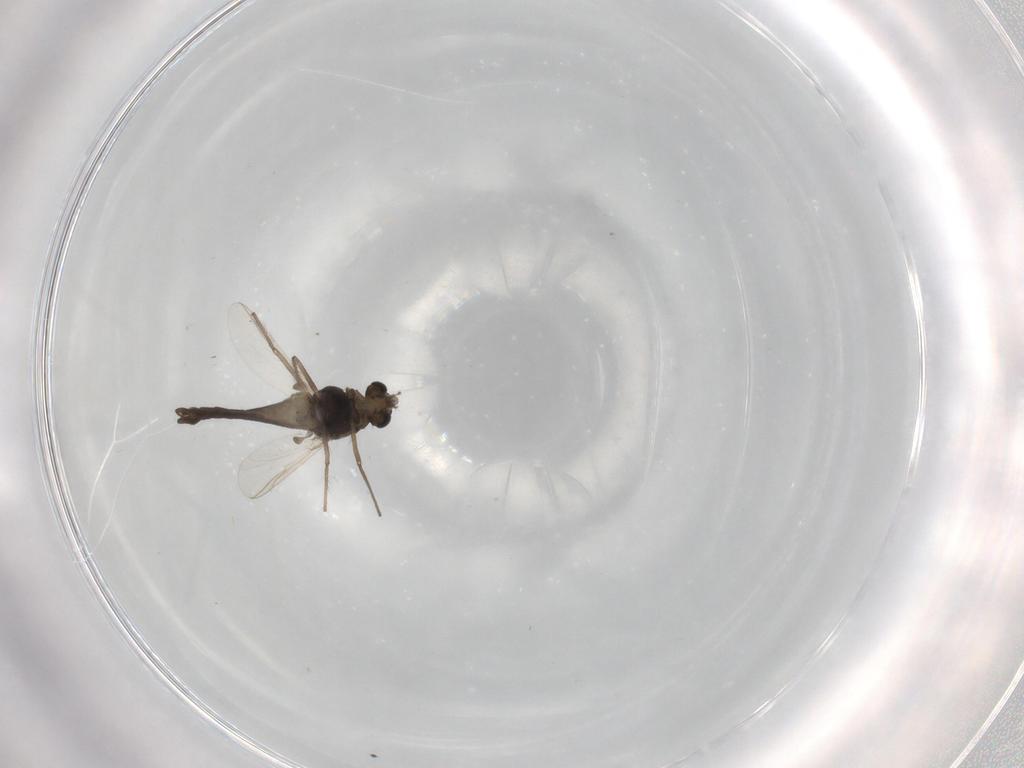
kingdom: Animalia
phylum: Arthropoda
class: Insecta
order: Diptera
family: Chironomidae
